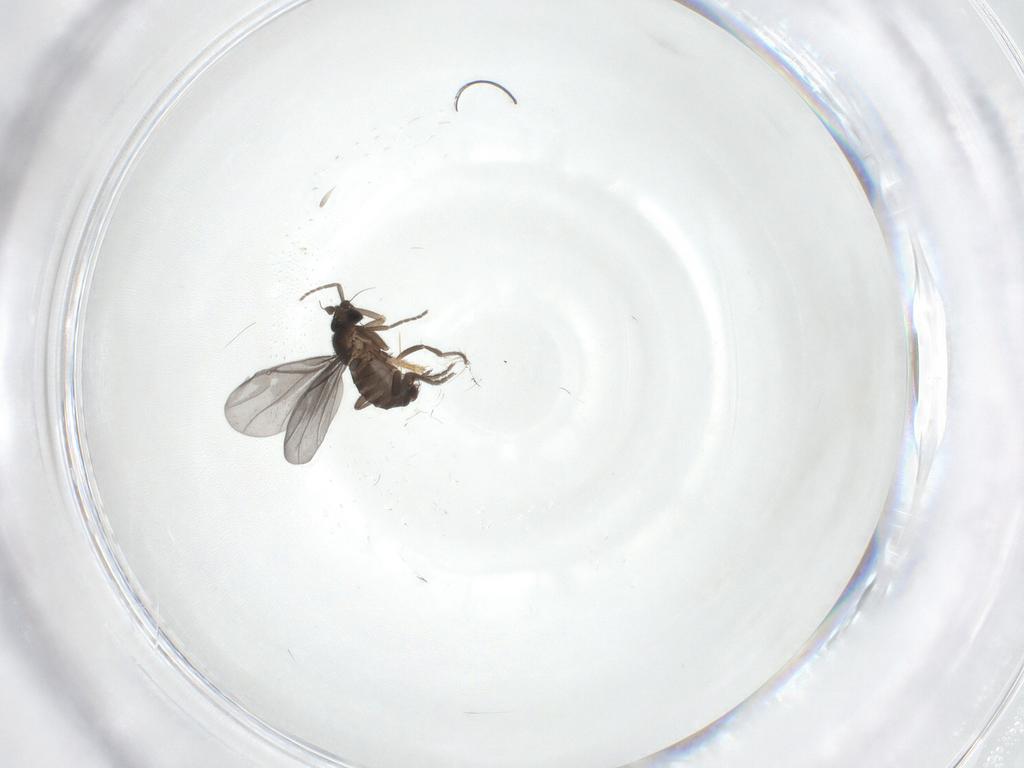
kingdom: Animalia
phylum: Arthropoda
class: Insecta
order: Diptera
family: Phoridae
